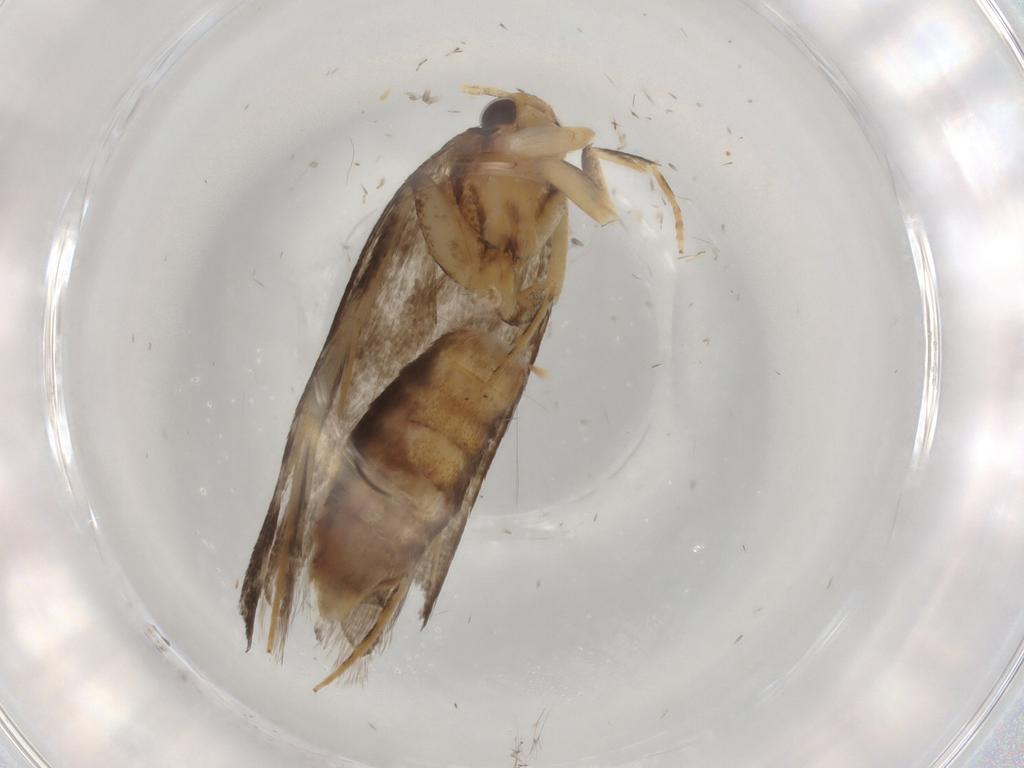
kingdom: Animalia
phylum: Arthropoda
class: Insecta
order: Lepidoptera
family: Lecithoceridae
